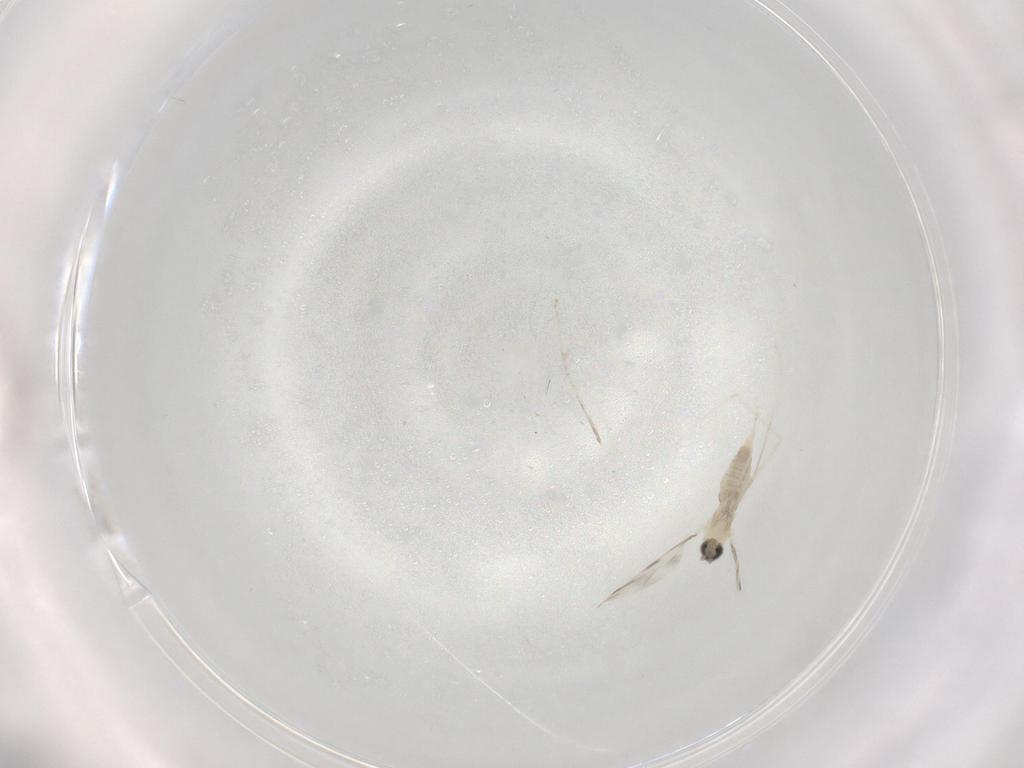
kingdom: Animalia
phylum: Arthropoda
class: Insecta
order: Diptera
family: Cecidomyiidae
